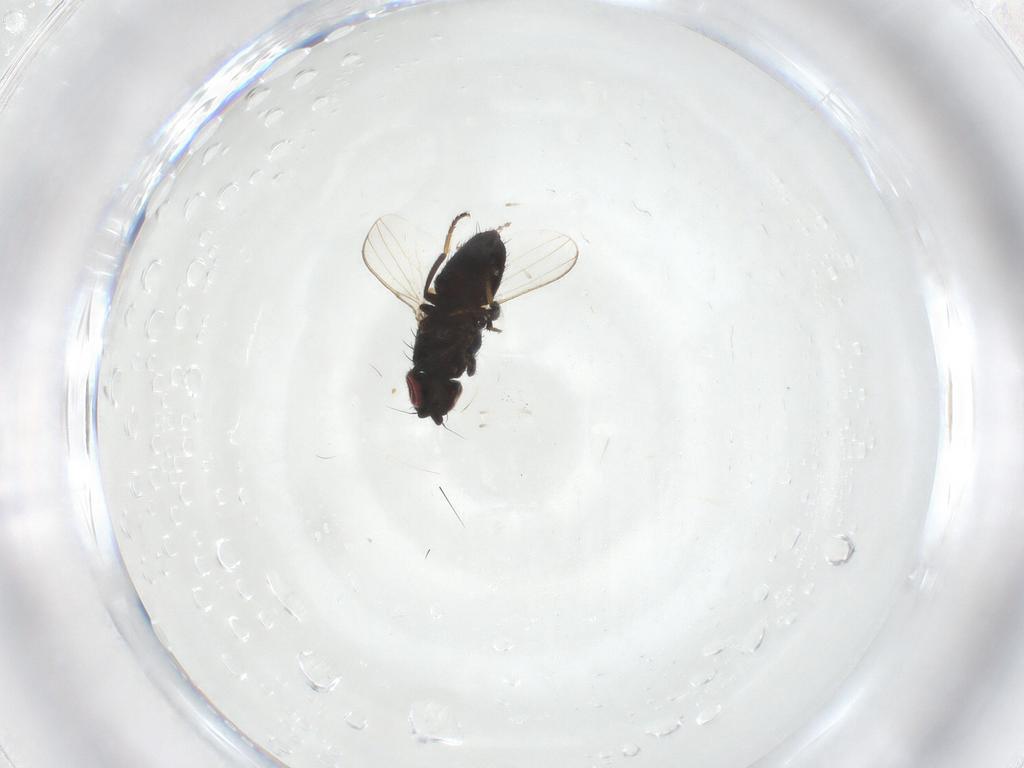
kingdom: Animalia
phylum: Arthropoda
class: Insecta
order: Diptera
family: Milichiidae
